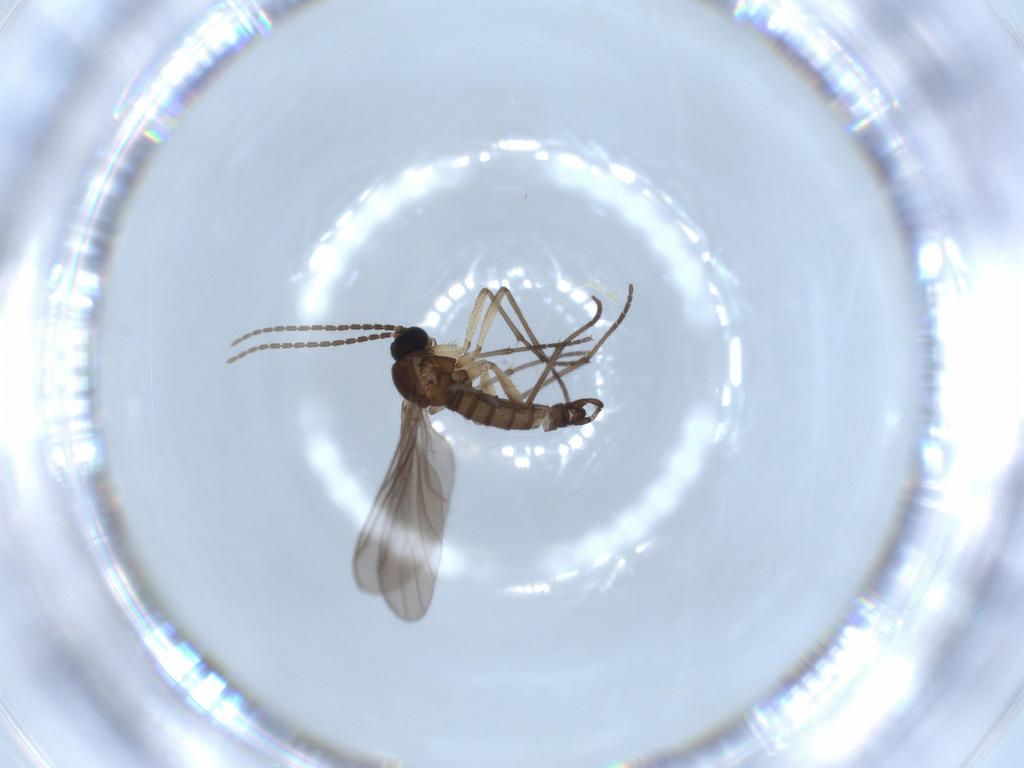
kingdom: Animalia
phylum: Arthropoda
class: Insecta
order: Diptera
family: Sciaridae
